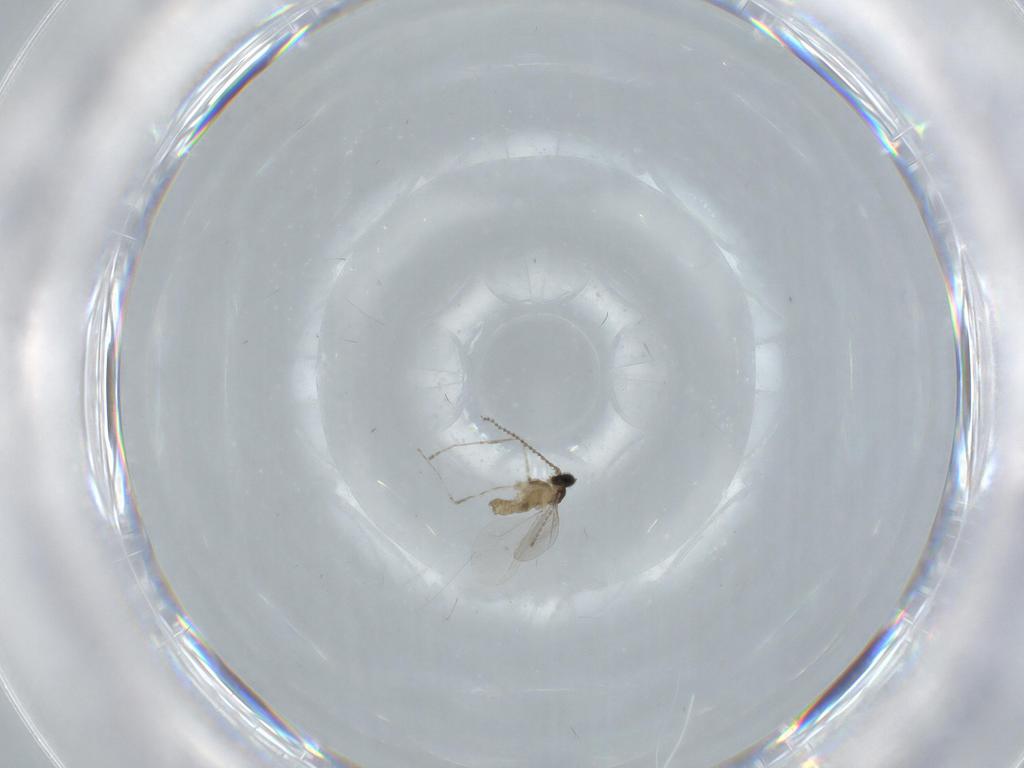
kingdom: Animalia
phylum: Arthropoda
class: Insecta
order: Diptera
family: Cecidomyiidae
